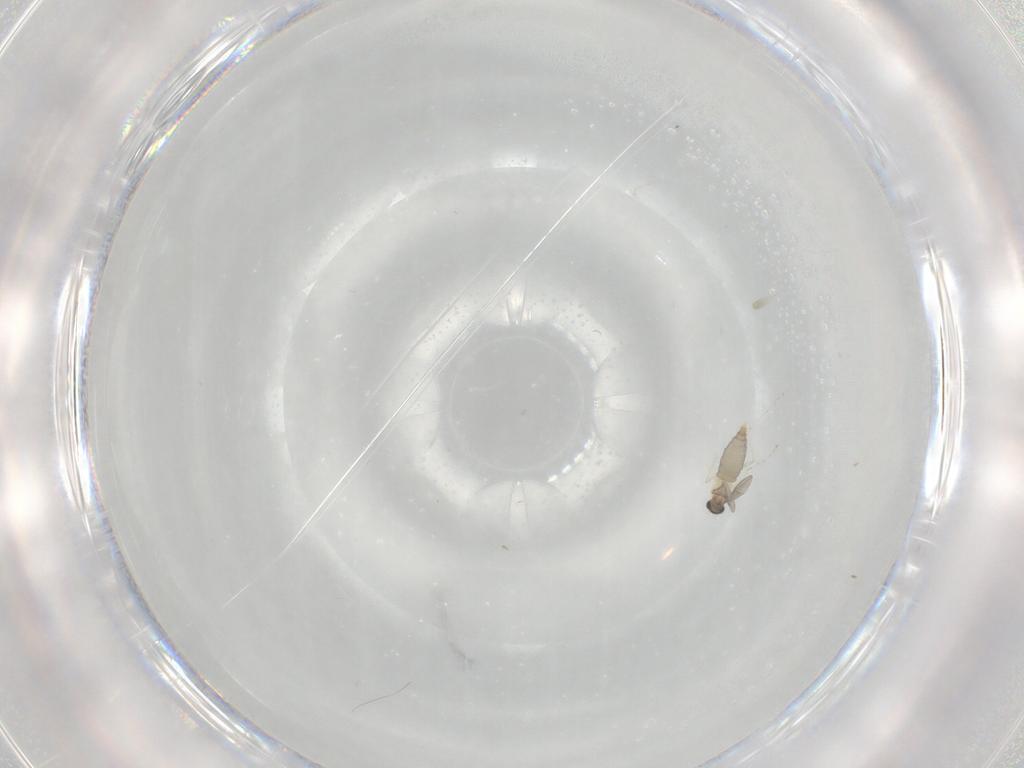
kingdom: Animalia
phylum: Arthropoda
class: Insecta
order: Diptera
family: Cecidomyiidae
